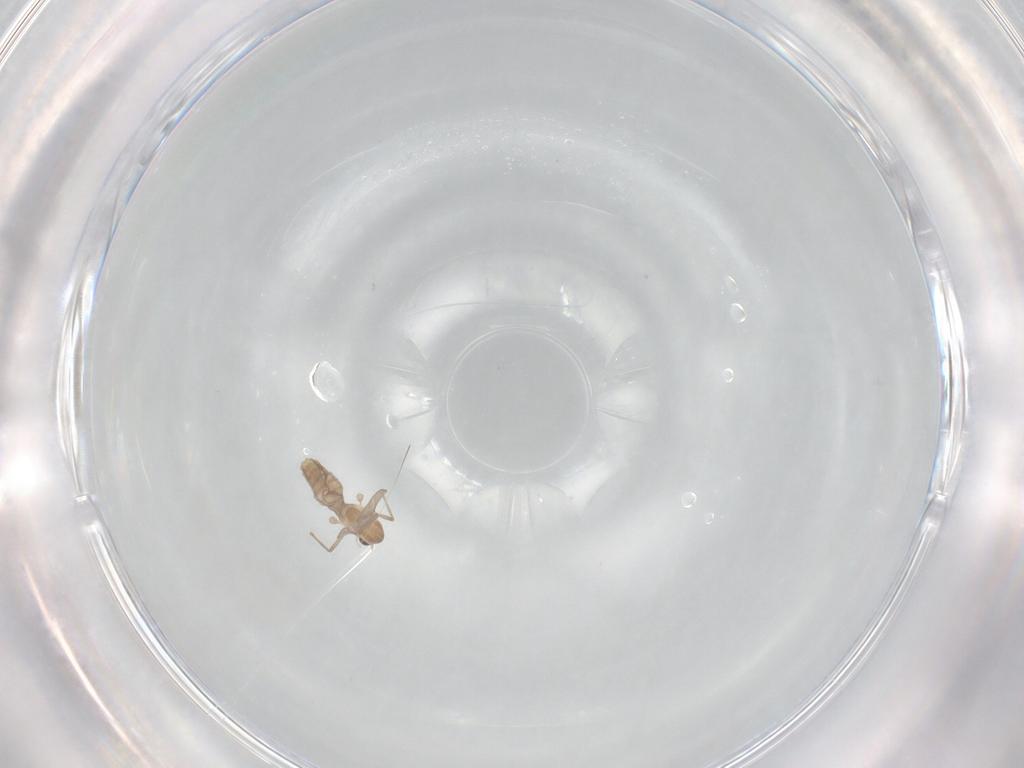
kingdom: Animalia
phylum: Arthropoda
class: Insecta
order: Diptera
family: Chironomidae
